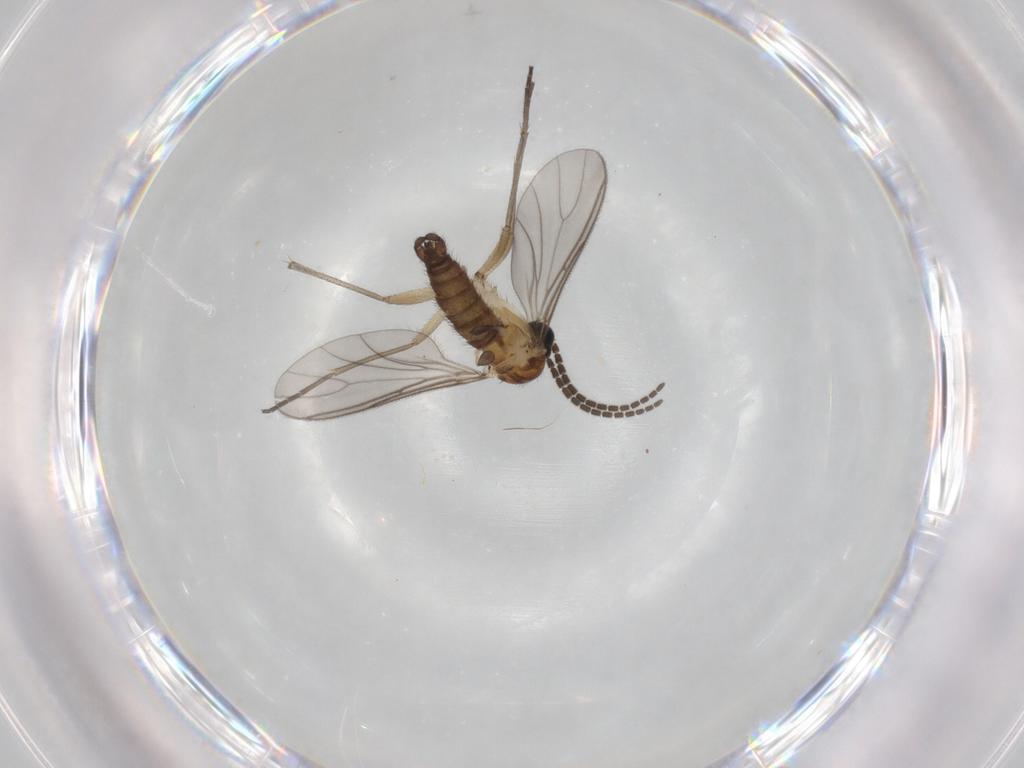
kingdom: Animalia
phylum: Arthropoda
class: Insecta
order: Diptera
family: Sciaridae
